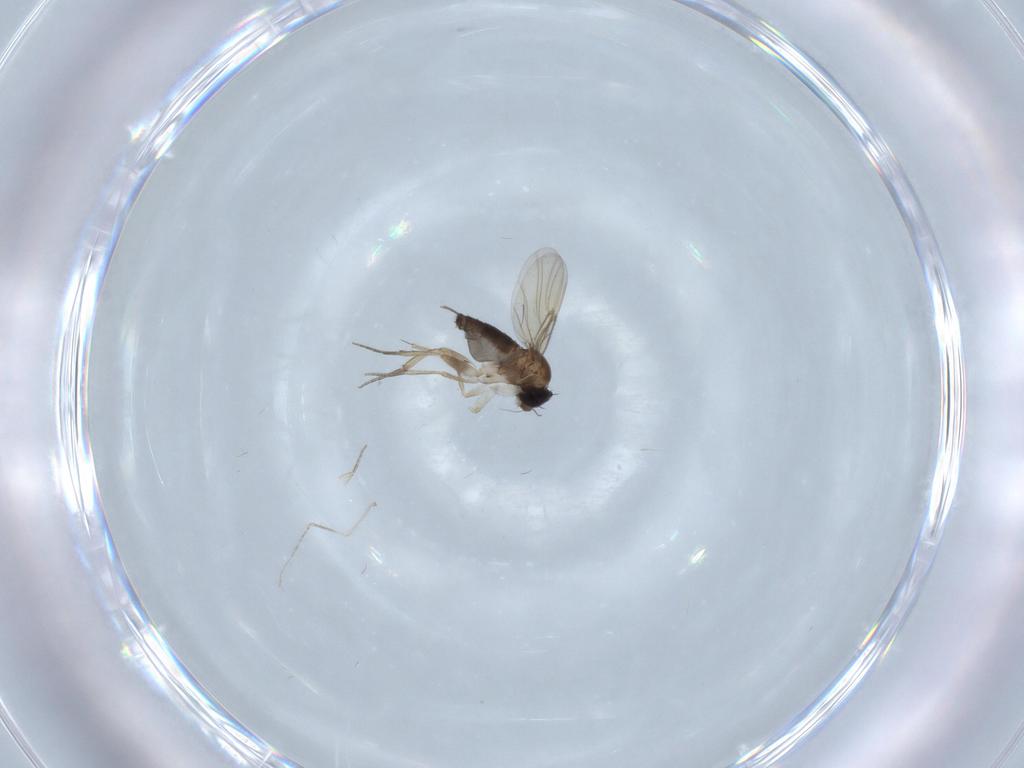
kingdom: Animalia
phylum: Arthropoda
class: Insecta
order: Diptera
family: Phoridae
